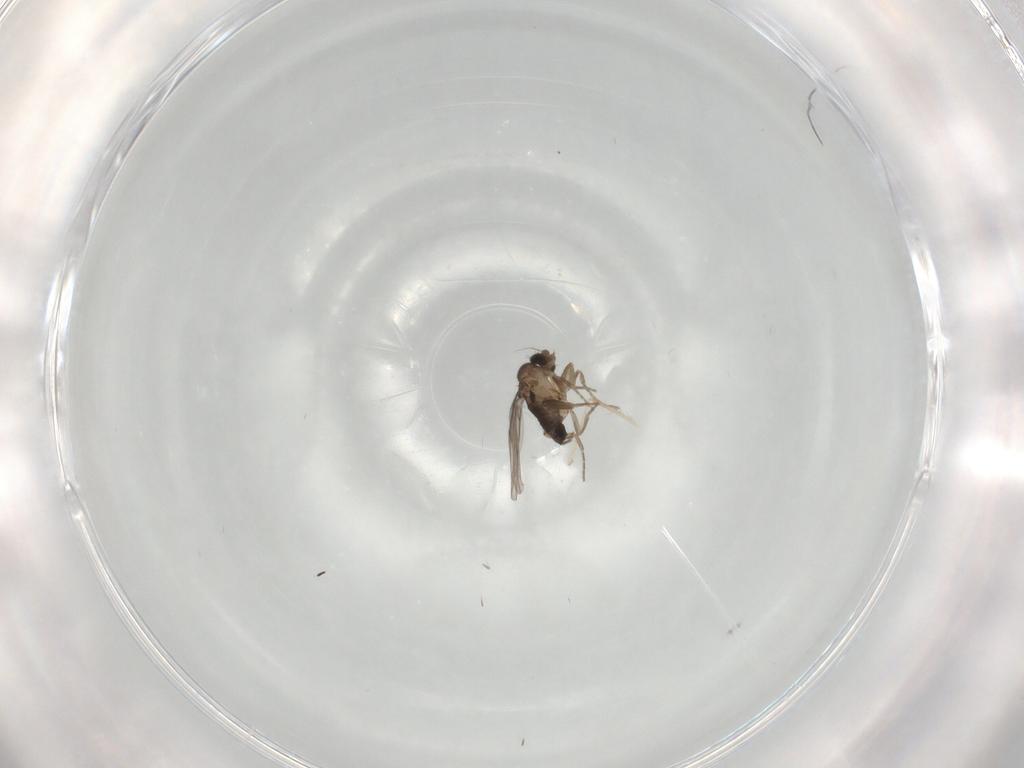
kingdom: Animalia
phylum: Arthropoda
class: Insecta
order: Diptera
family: Phoridae
